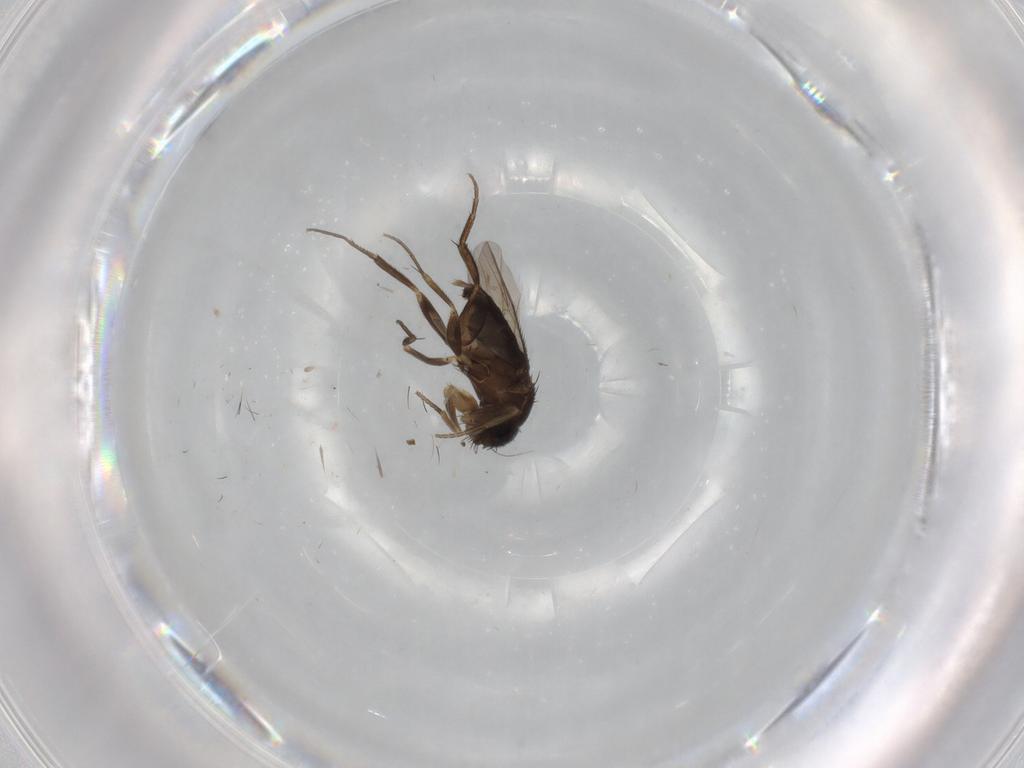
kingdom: Animalia
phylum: Arthropoda
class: Insecta
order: Diptera
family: Phoridae
